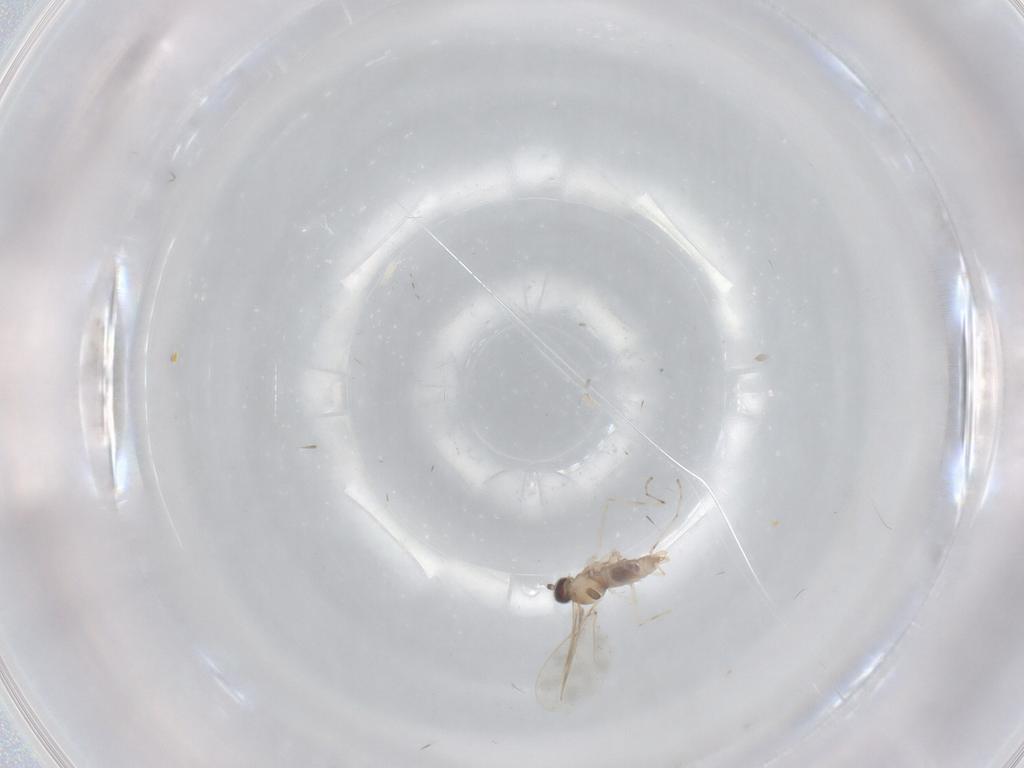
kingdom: Animalia
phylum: Arthropoda
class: Insecta
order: Diptera
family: Cecidomyiidae
